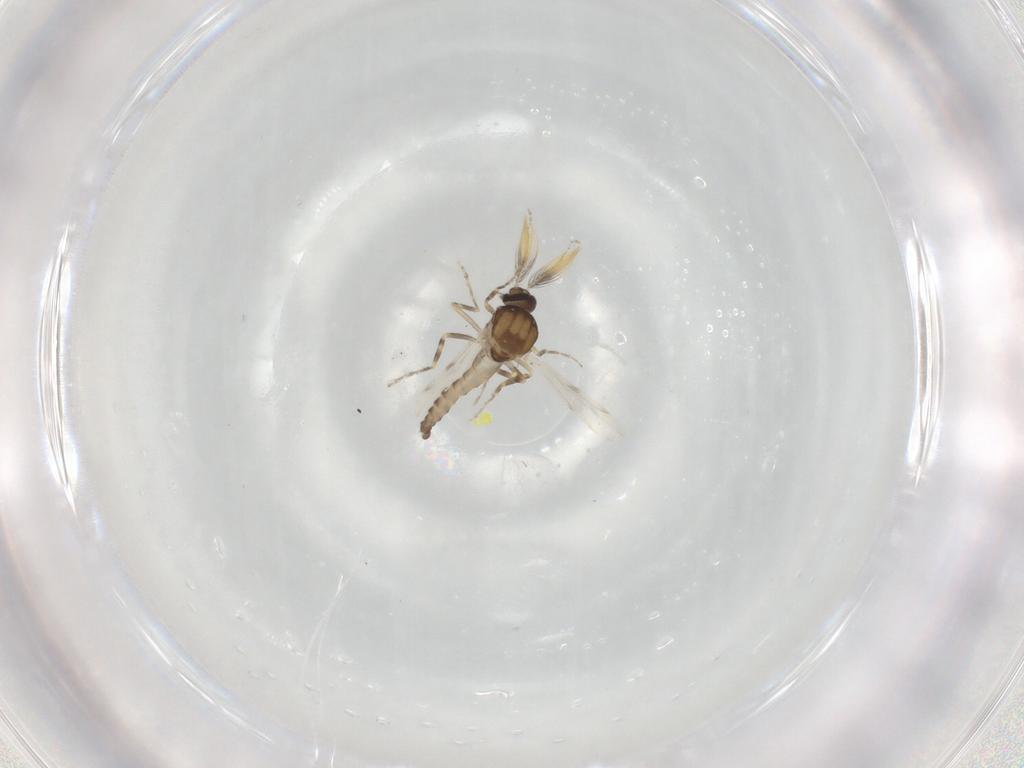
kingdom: Animalia
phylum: Arthropoda
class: Insecta
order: Diptera
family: Ceratopogonidae
